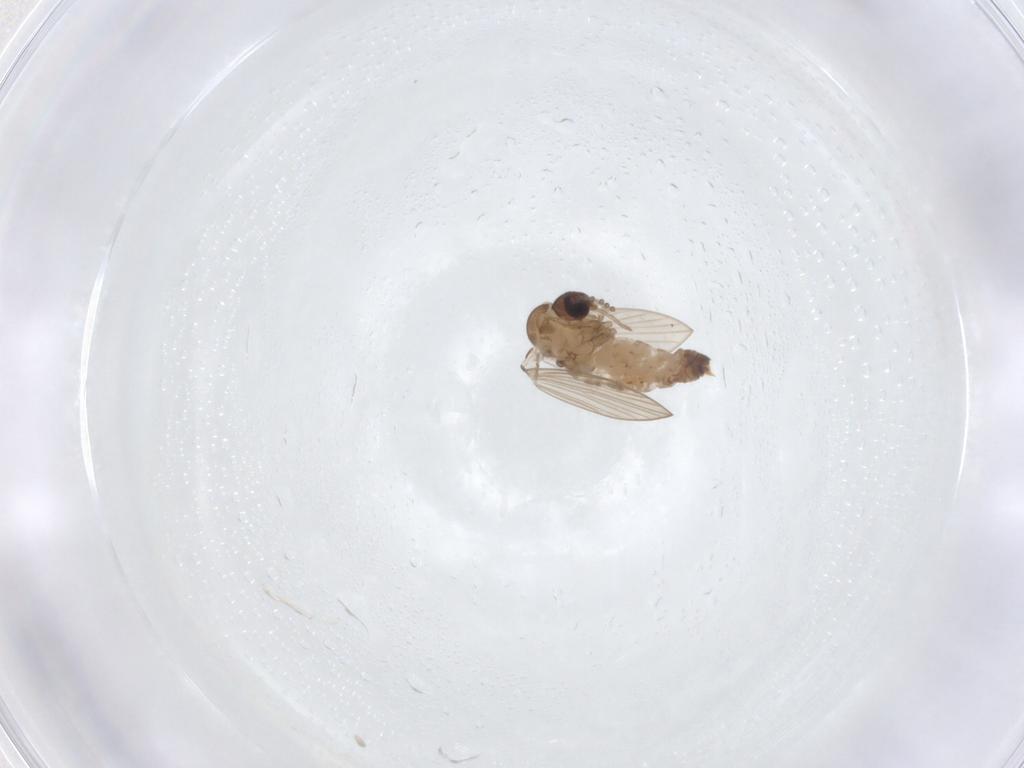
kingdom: Animalia
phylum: Arthropoda
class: Insecta
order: Diptera
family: Psychodidae
